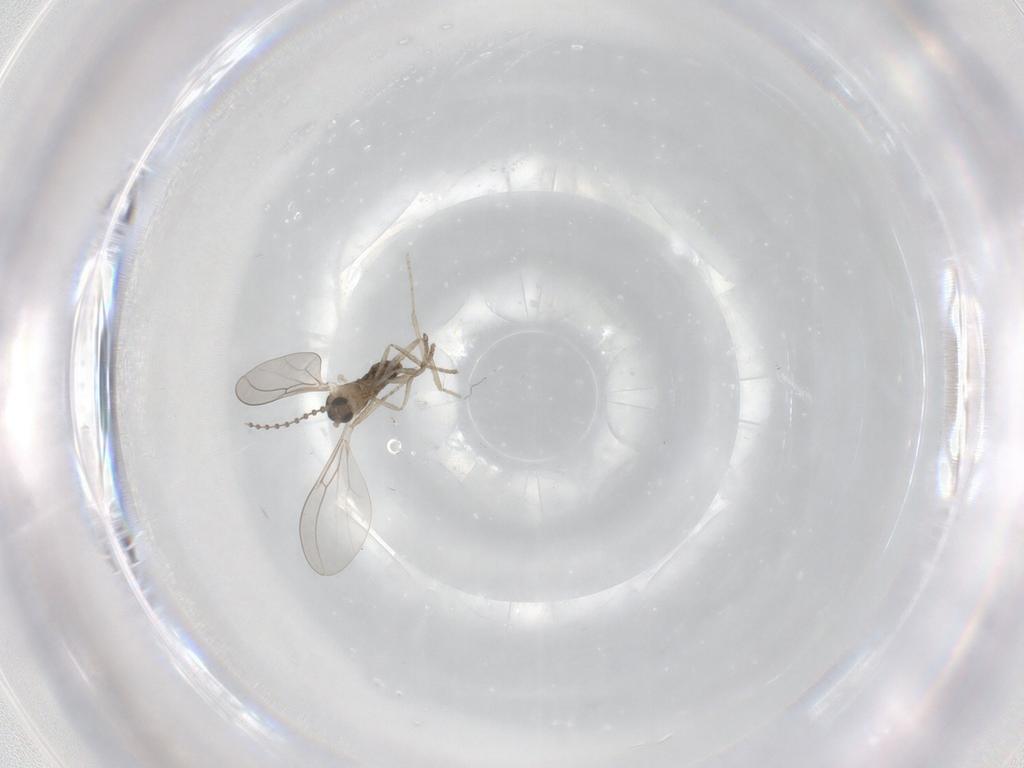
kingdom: Animalia
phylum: Arthropoda
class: Insecta
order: Diptera
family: Cecidomyiidae
